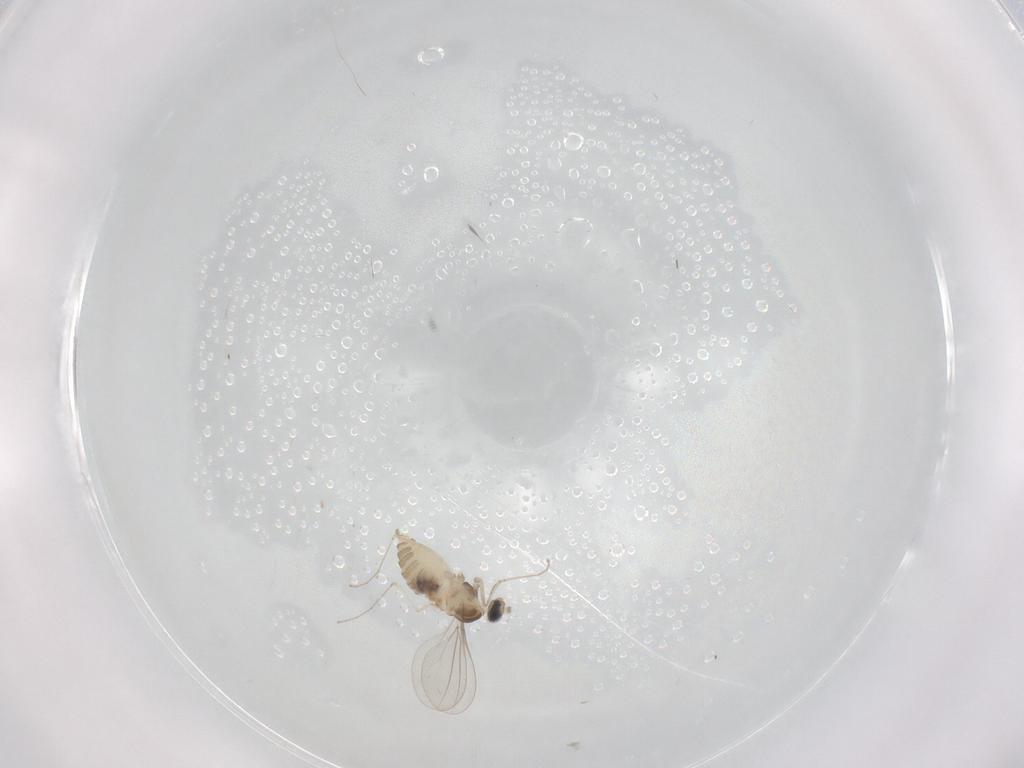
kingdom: Animalia
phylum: Arthropoda
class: Insecta
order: Diptera
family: Cecidomyiidae
